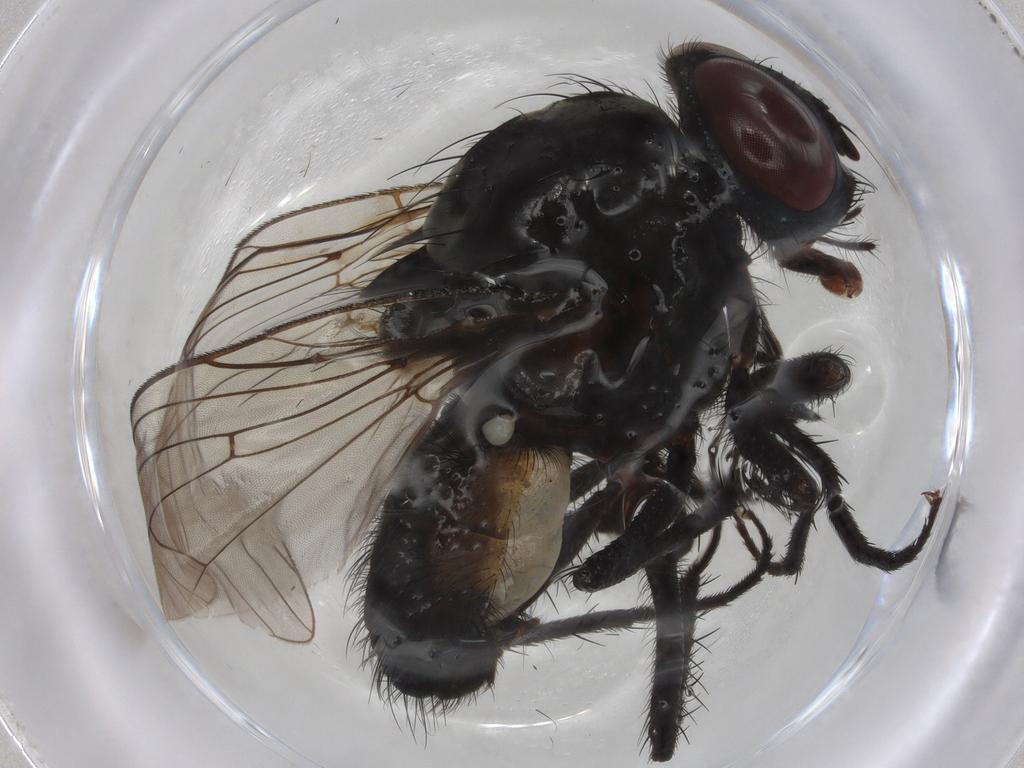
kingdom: Animalia
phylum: Arthropoda
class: Insecta
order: Diptera
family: Anthomyiidae
